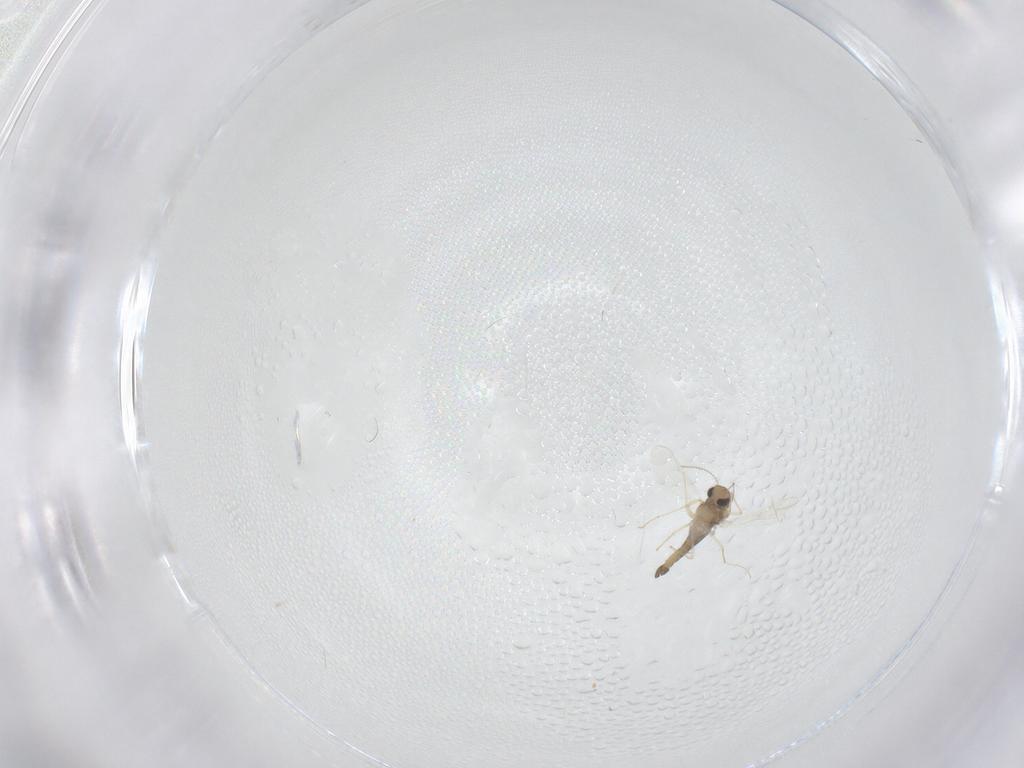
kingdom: Animalia
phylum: Arthropoda
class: Insecta
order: Diptera
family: Chironomidae
